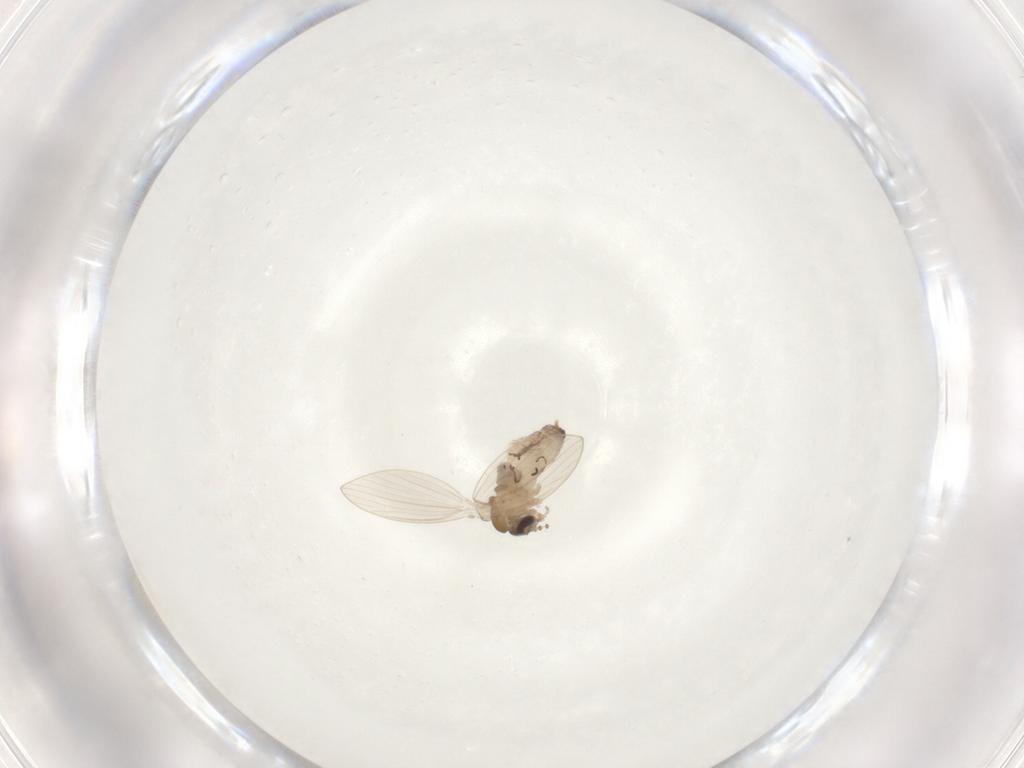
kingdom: Animalia
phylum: Arthropoda
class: Insecta
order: Diptera
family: Psychodidae
